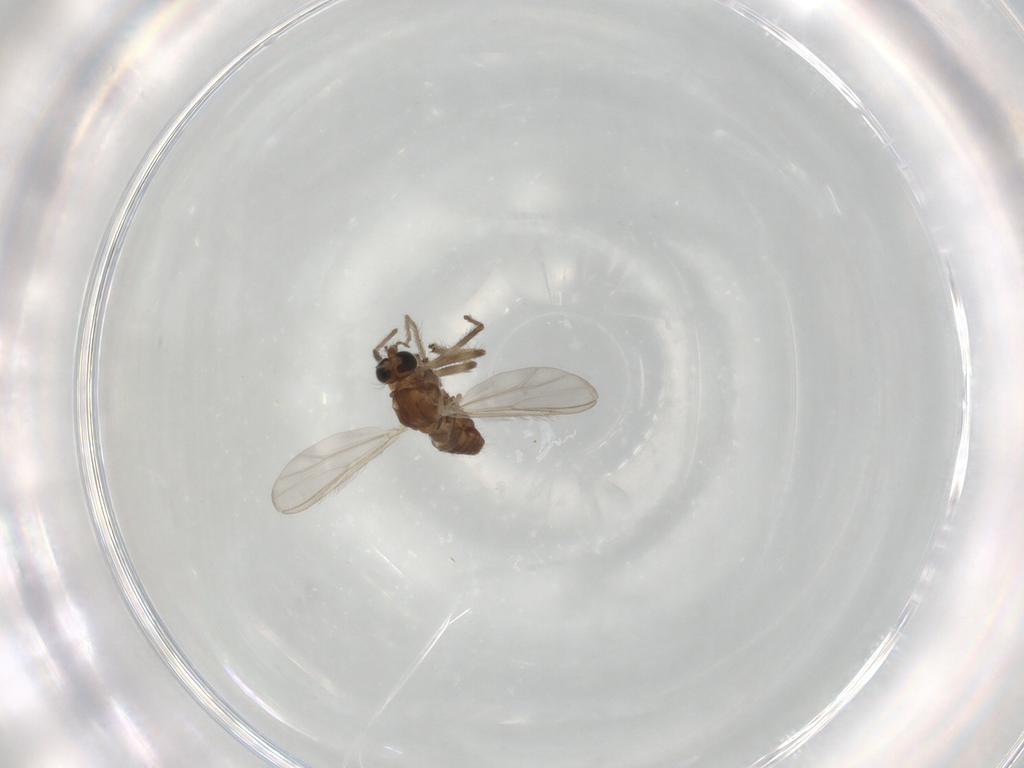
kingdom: Animalia
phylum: Arthropoda
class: Insecta
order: Diptera
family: Chironomidae
